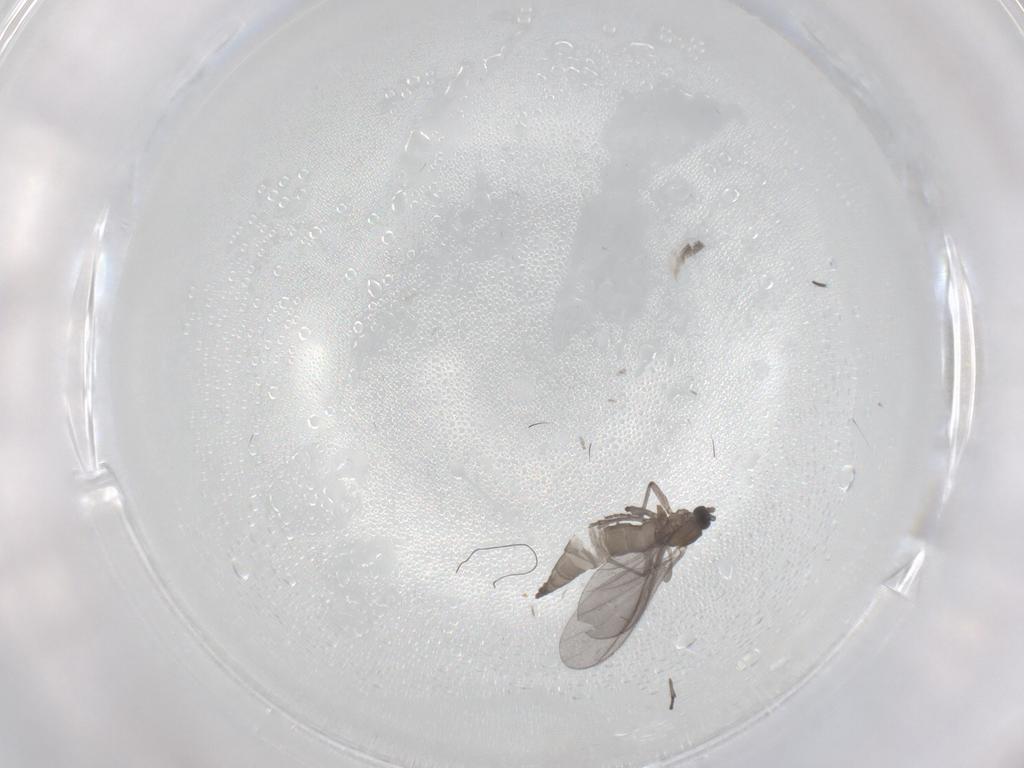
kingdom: Animalia
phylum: Arthropoda
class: Insecta
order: Diptera
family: Sciaridae
